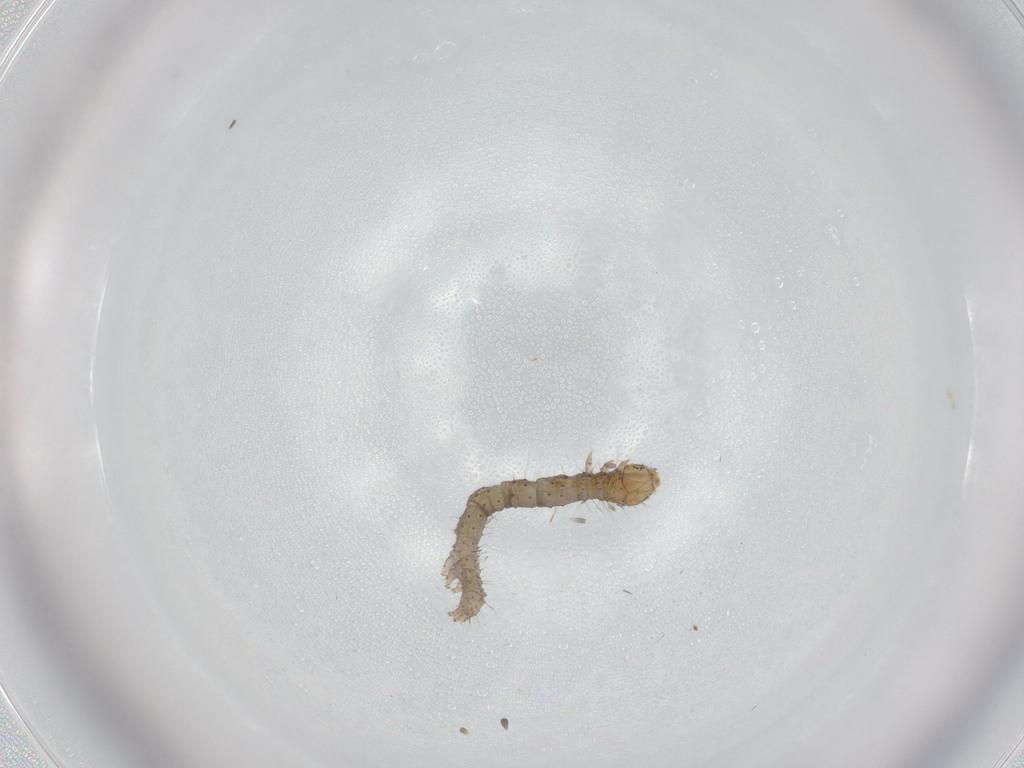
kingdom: Animalia
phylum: Arthropoda
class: Insecta
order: Lepidoptera
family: Erebidae
